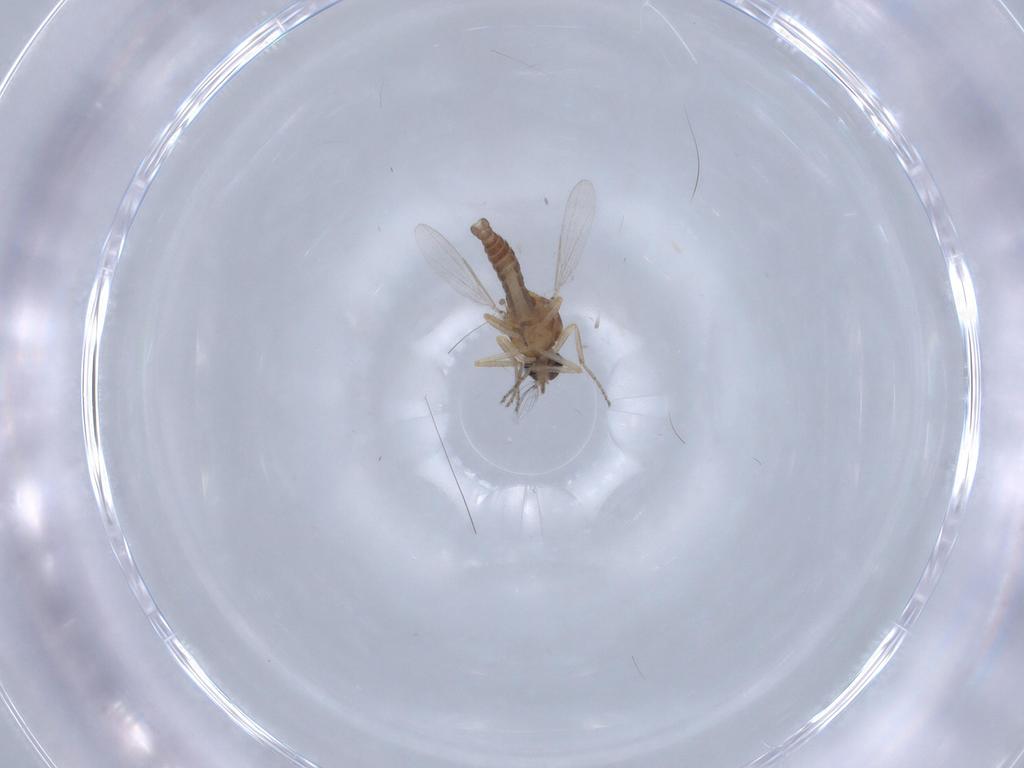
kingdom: Animalia
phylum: Arthropoda
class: Insecta
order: Diptera
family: Ceratopogonidae
